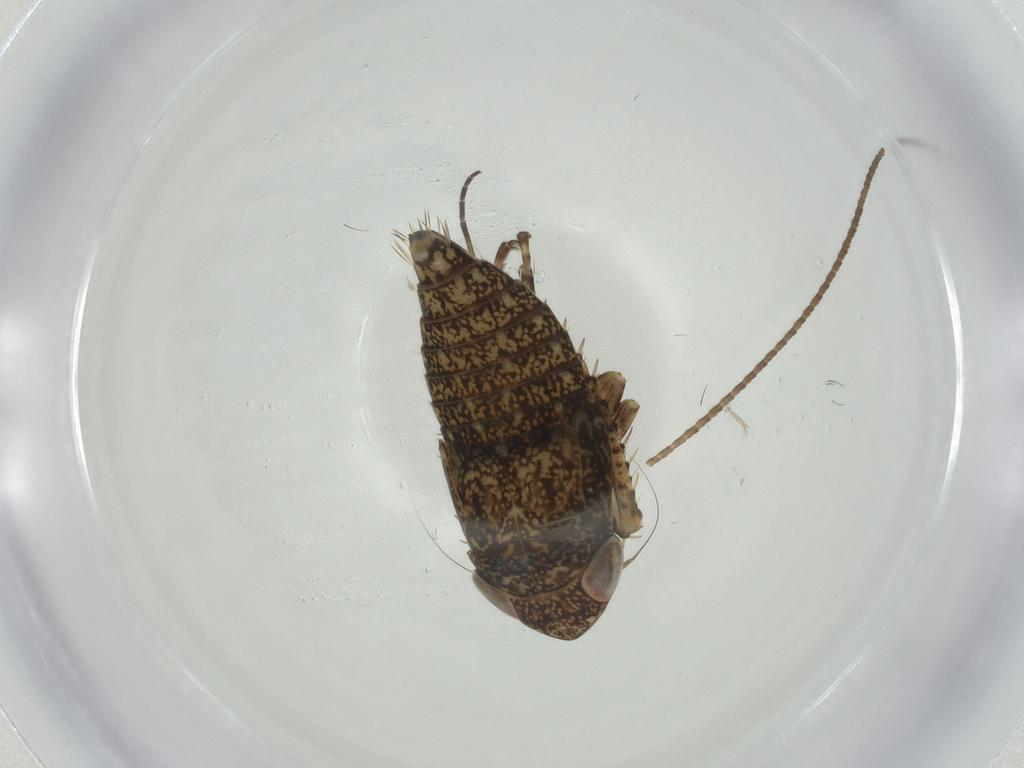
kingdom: Animalia
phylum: Arthropoda
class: Insecta
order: Hemiptera
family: Cicadellidae
